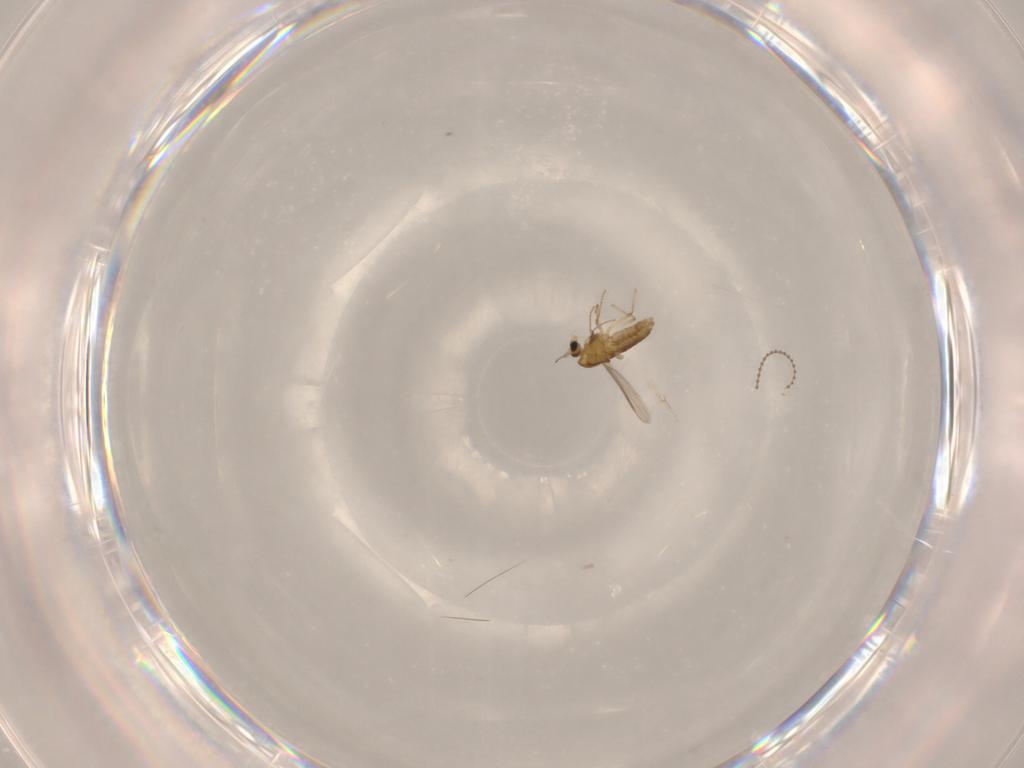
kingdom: Animalia
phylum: Arthropoda
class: Insecta
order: Diptera
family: Chironomidae
